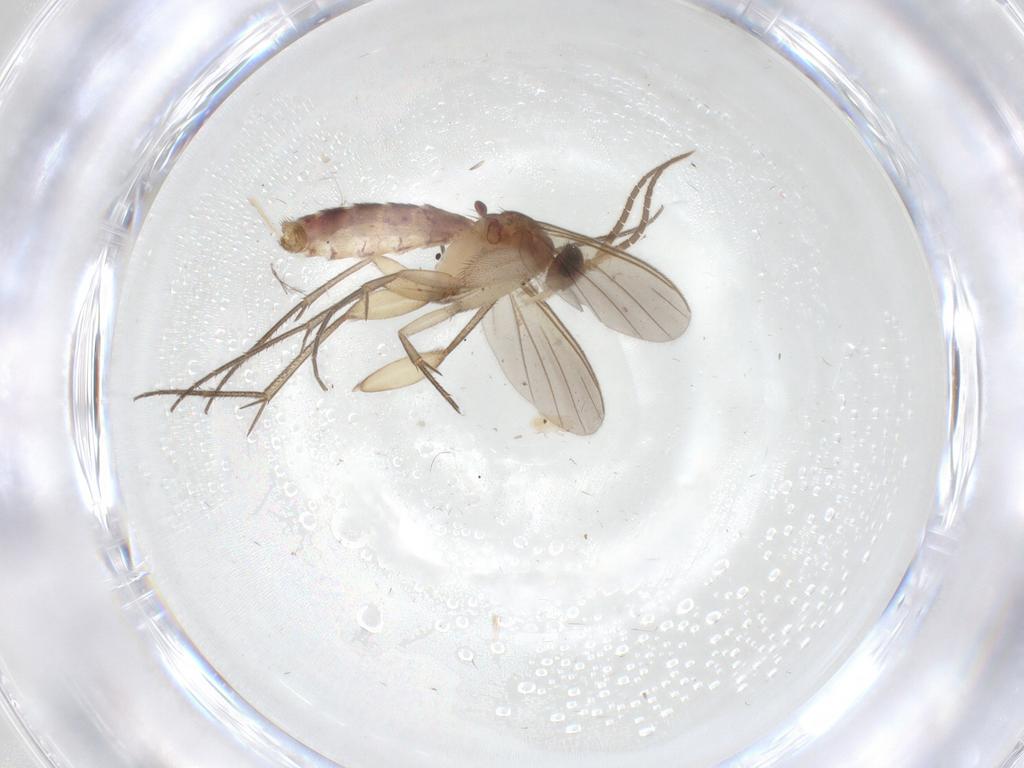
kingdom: Animalia
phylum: Arthropoda
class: Insecta
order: Diptera
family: Mycetophilidae
